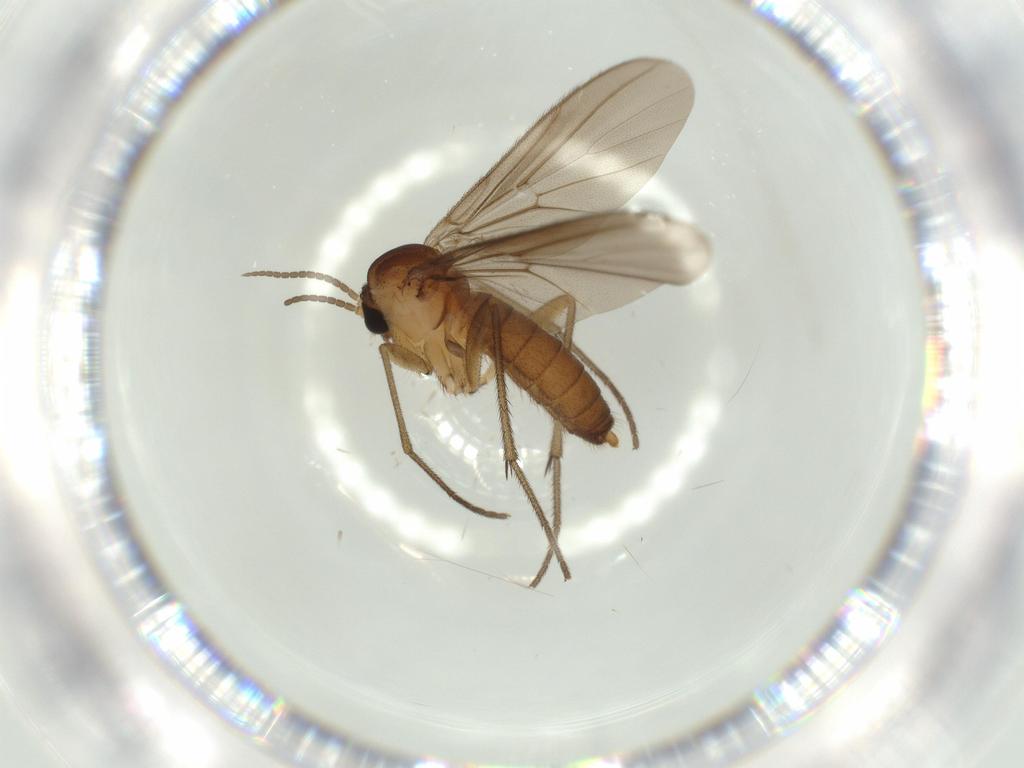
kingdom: Animalia
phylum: Arthropoda
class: Insecta
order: Diptera
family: Diadocidiidae
